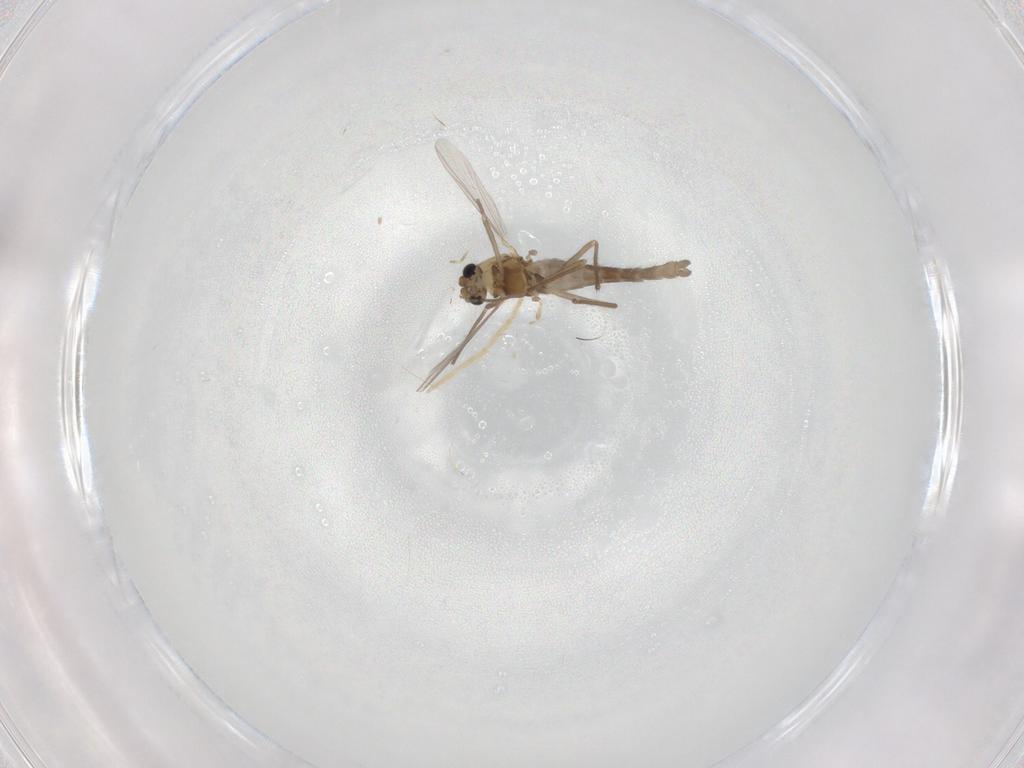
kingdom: Animalia
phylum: Arthropoda
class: Insecta
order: Diptera
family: Chironomidae
